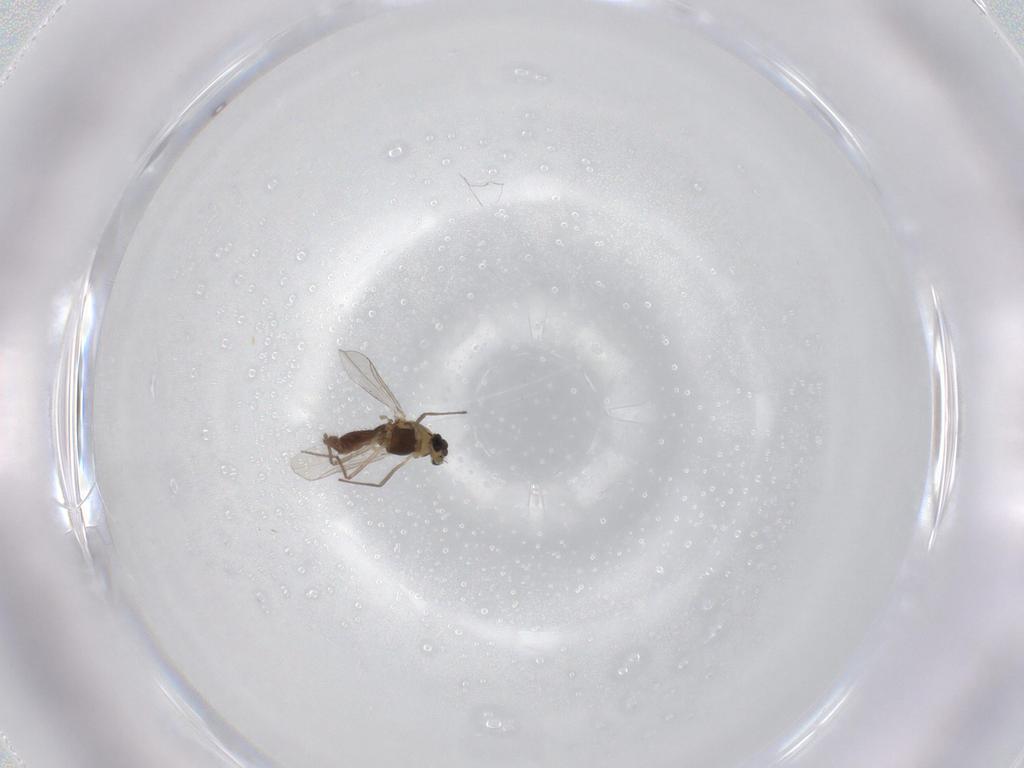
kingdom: Animalia
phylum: Arthropoda
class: Insecta
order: Diptera
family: Chironomidae
